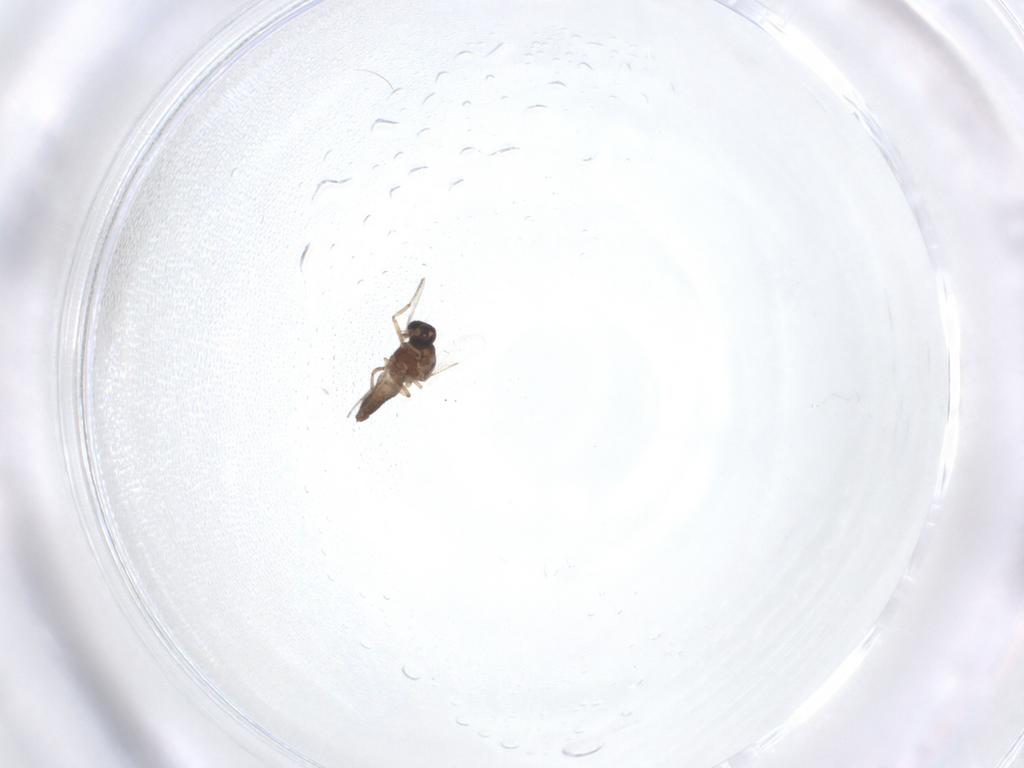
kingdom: Animalia
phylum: Arthropoda
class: Insecta
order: Diptera
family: Ceratopogonidae
